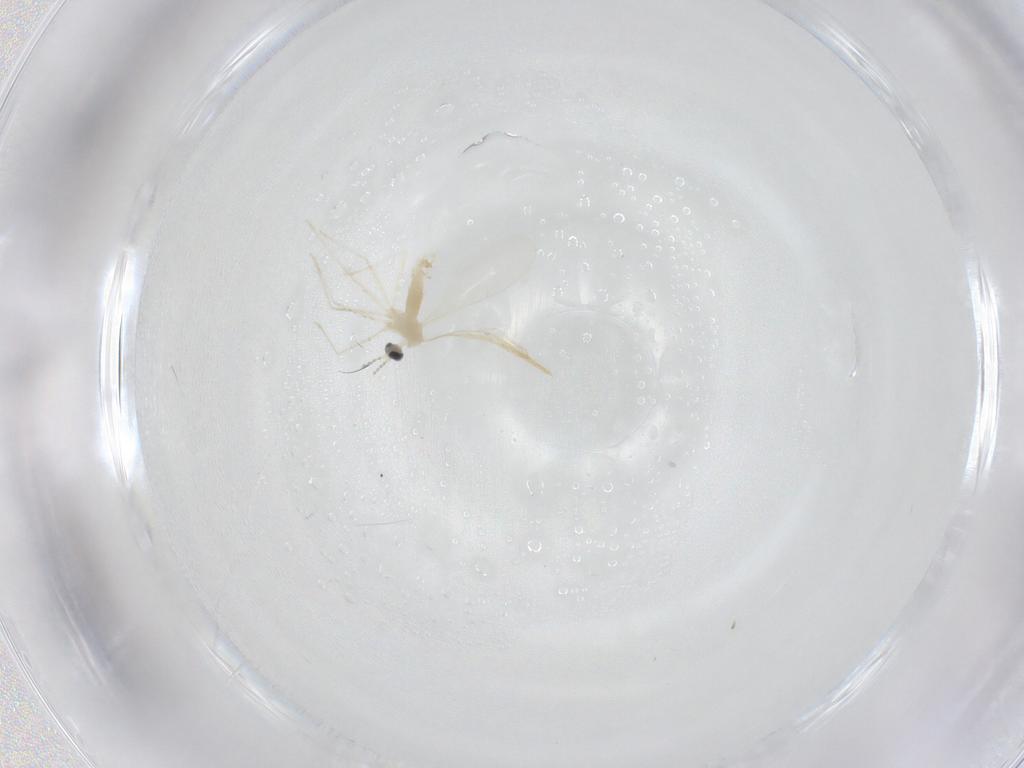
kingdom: Animalia
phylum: Arthropoda
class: Insecta
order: Diptera
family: Cecidomyiidae
